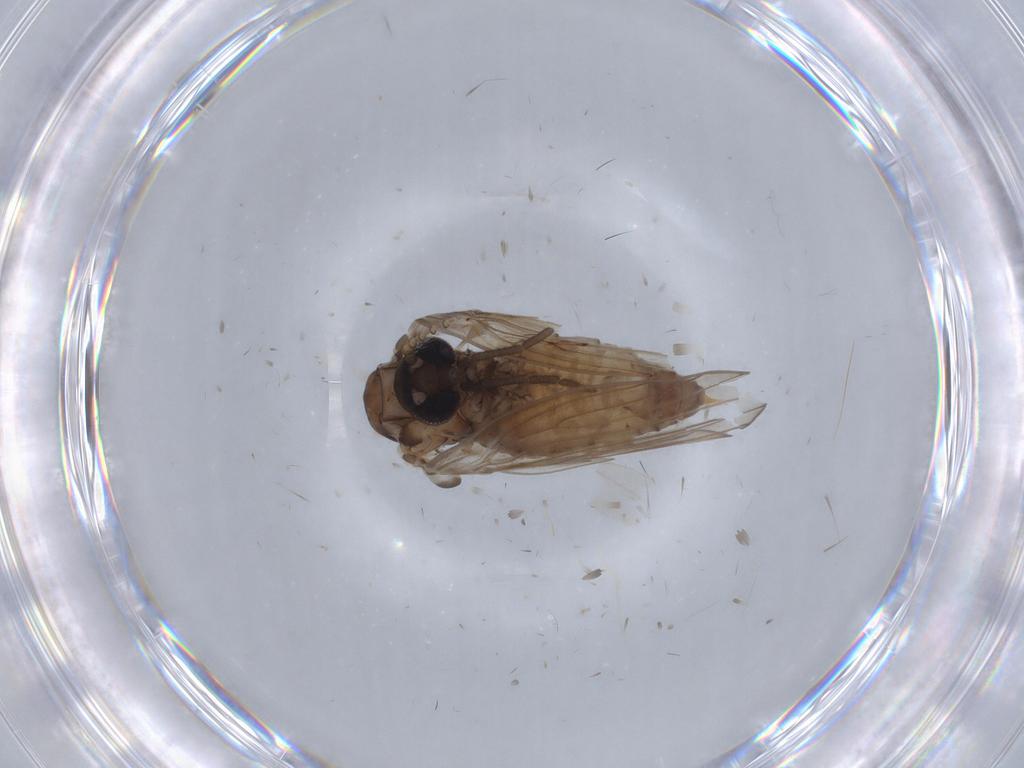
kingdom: Animalia
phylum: Arthropoda
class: Insecta
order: Diptera
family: Psychodidae
